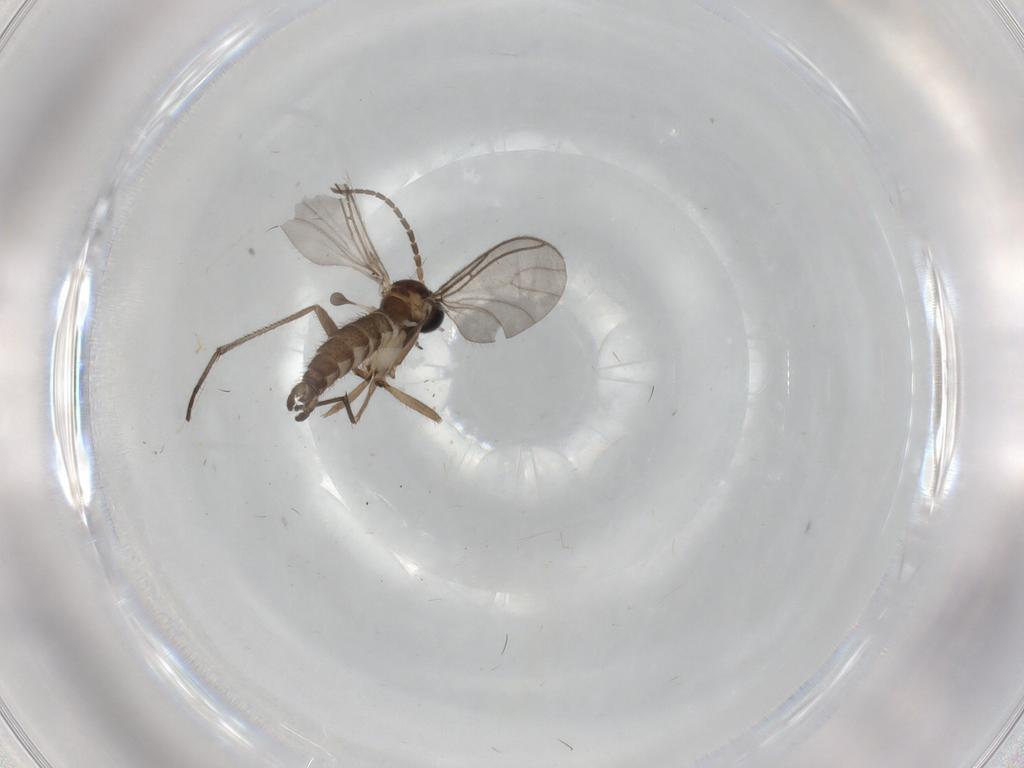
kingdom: Animalia
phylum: Arthropoda
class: Insecta
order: Diptera
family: Sciaridae
